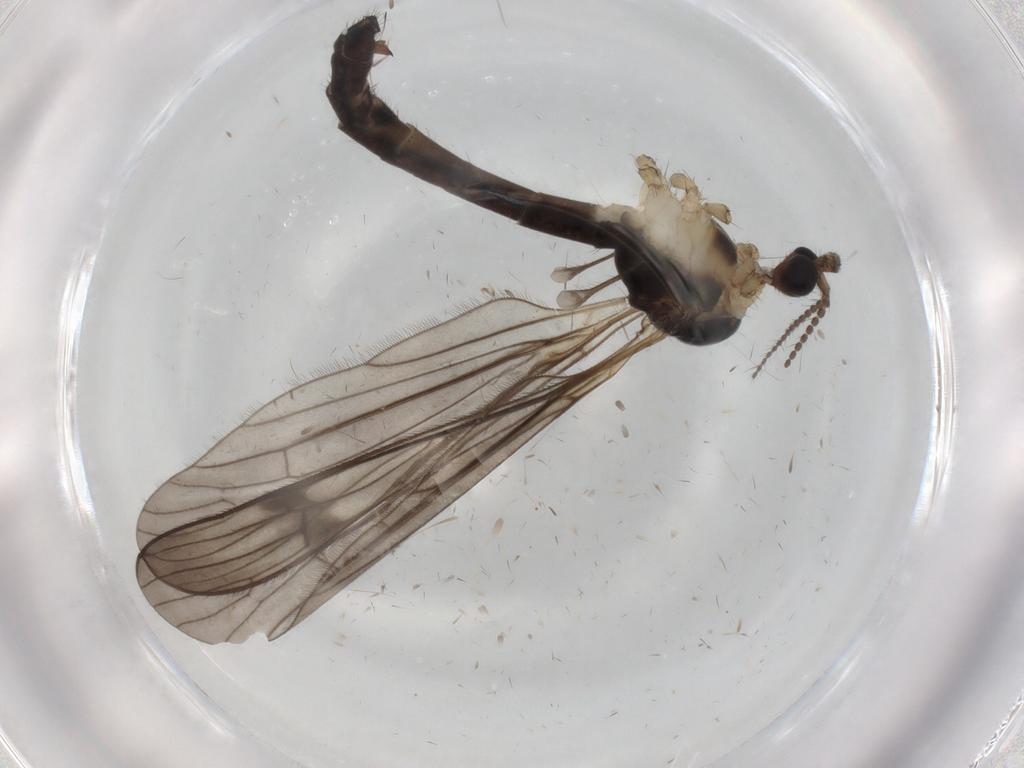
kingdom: Animalia
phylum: Arthropoda
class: Insecta
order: Diptera
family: Limoniidae
